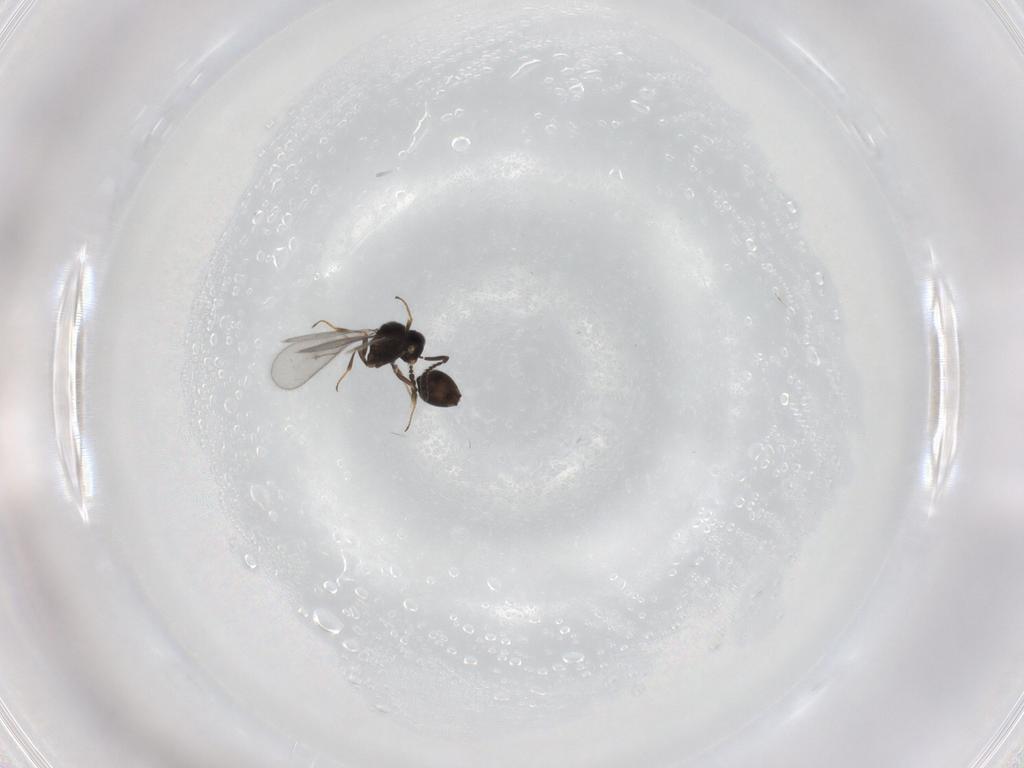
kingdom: Animalia
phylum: Arthropoda
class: Insecta
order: Hymenoptera
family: Scelionidae
